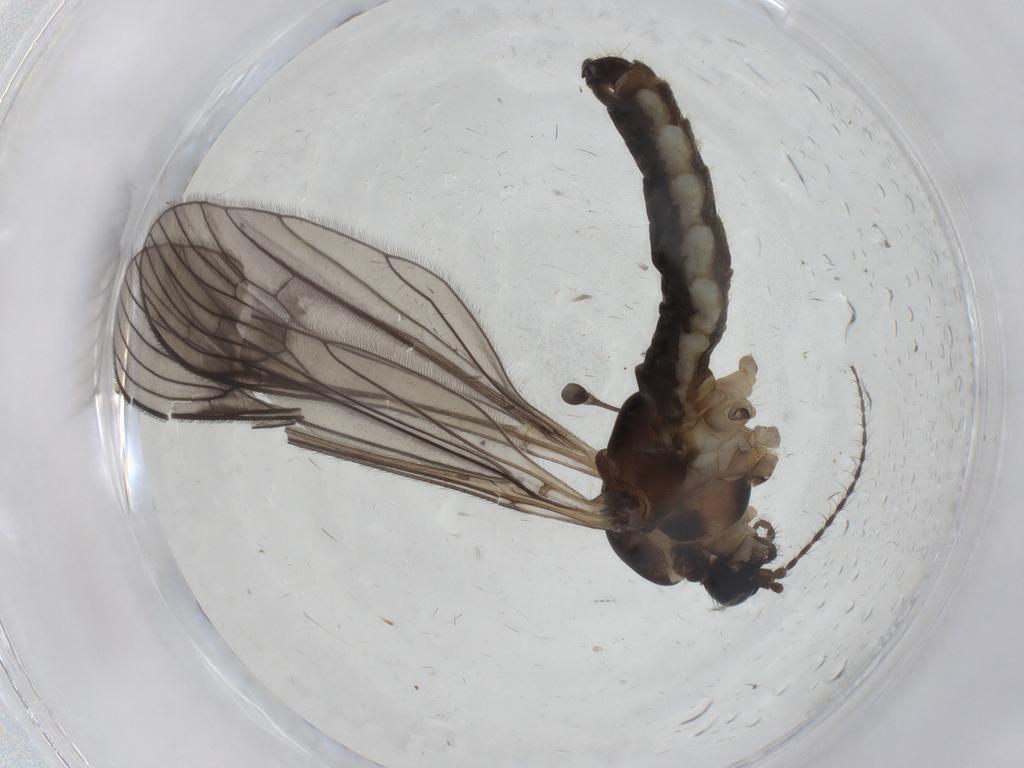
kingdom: Animalia
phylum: Arthropoda
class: Insecta
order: Diptera
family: Limoniidae
